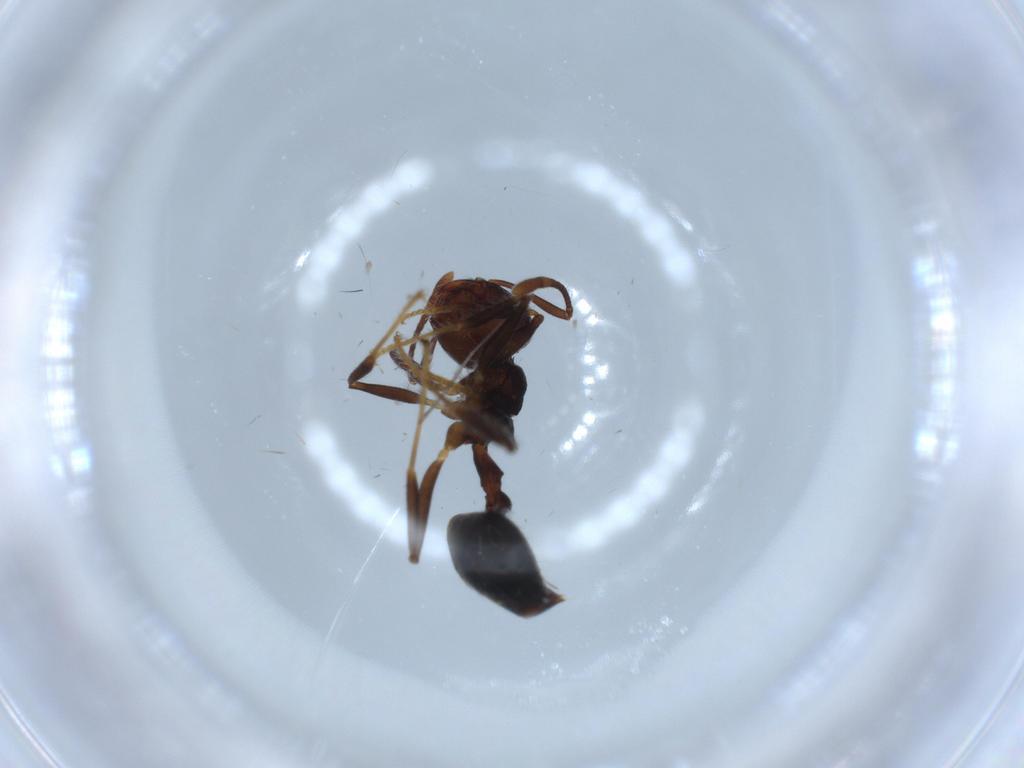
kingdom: Animalia
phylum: Arthropoda
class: Insecta
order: Hymenoptera
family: Formicidae
